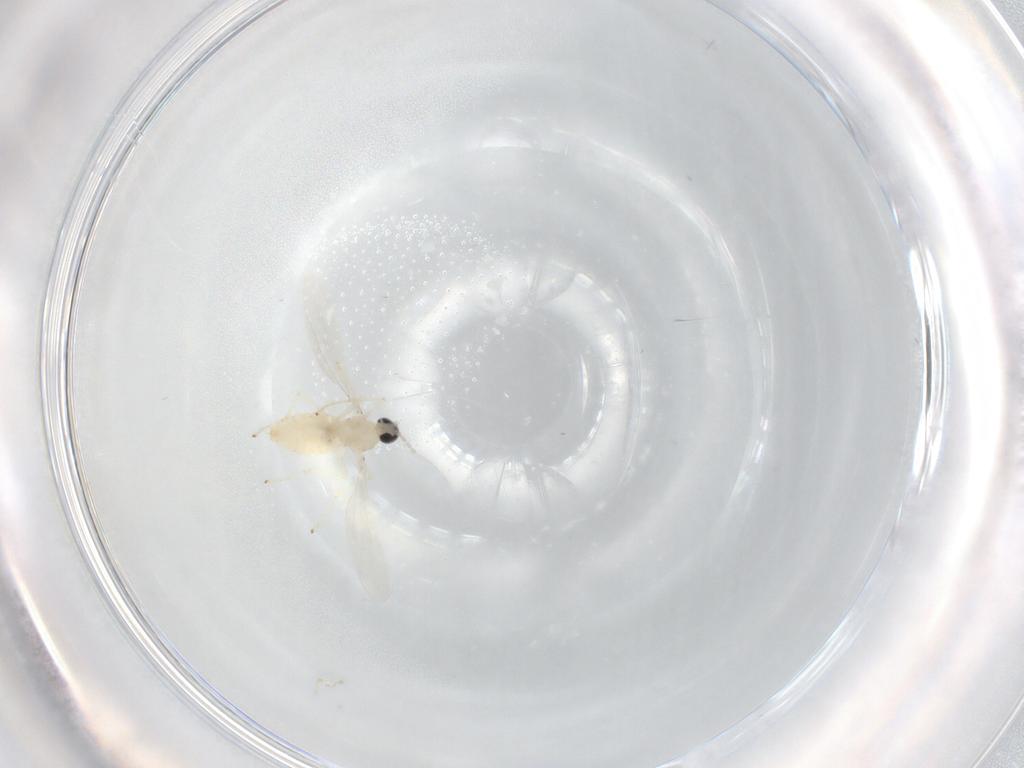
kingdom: Animalia
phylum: Arthropoda
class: Insecta
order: Diptera
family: Cecidomyiidae
